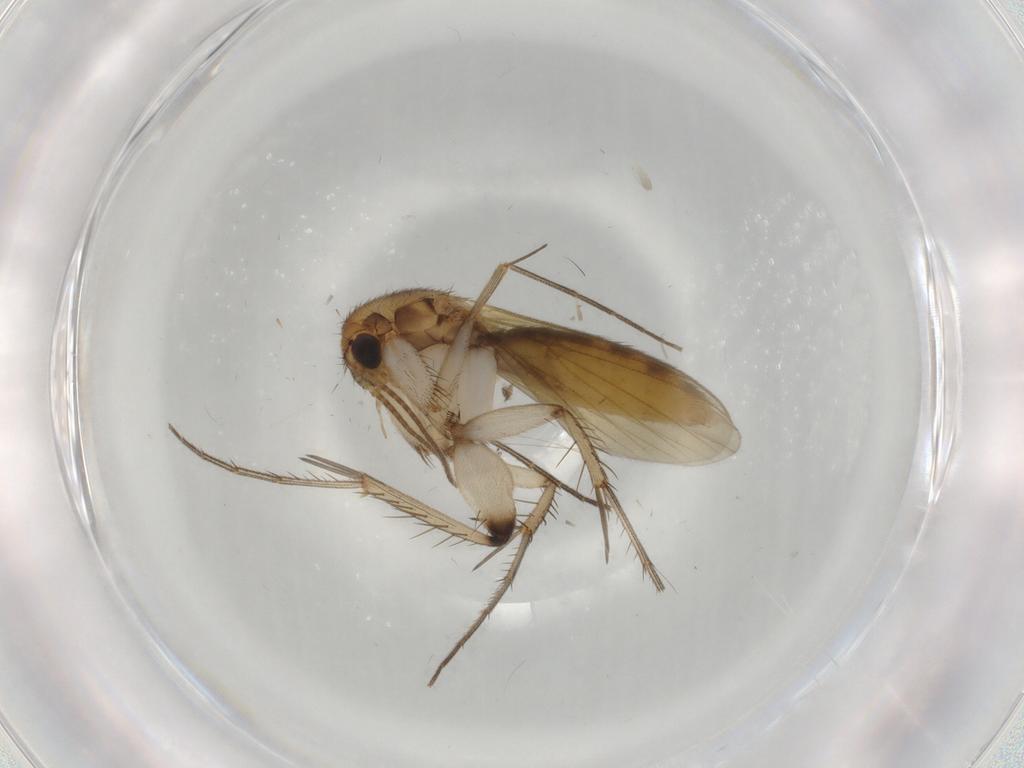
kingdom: Animalia
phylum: Arthropoda
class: Insecta
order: Diptera
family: Mycetophilidae
